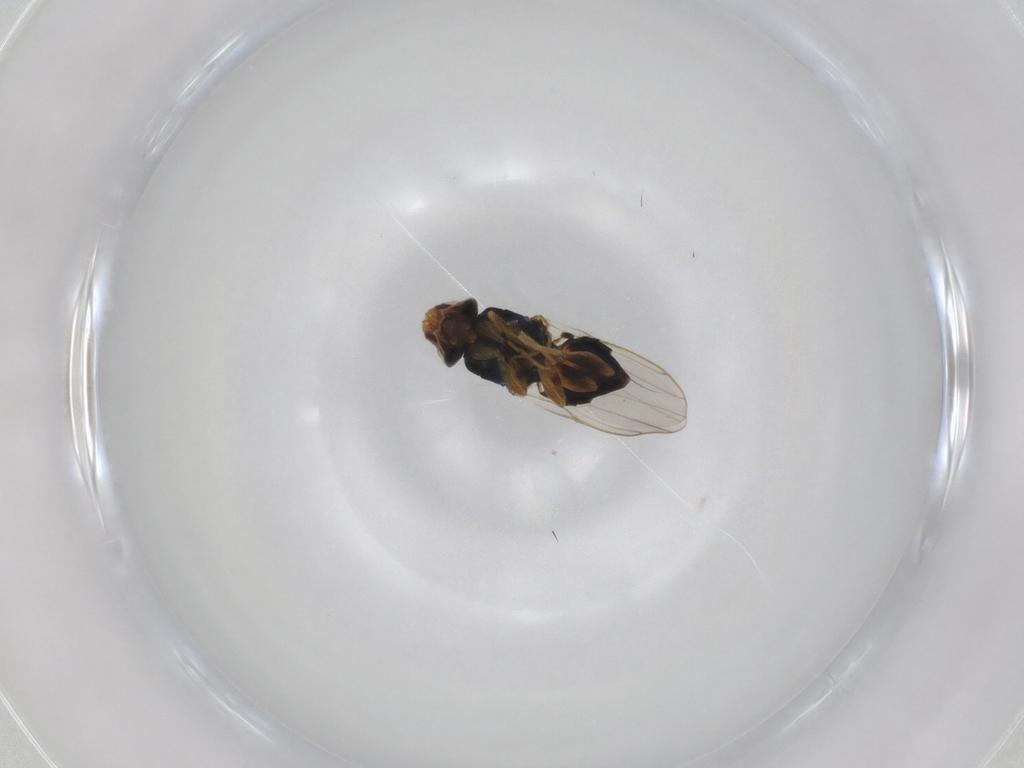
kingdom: Animalia
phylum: Arthropoda
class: Insecta
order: Diptera
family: Chloropidae
